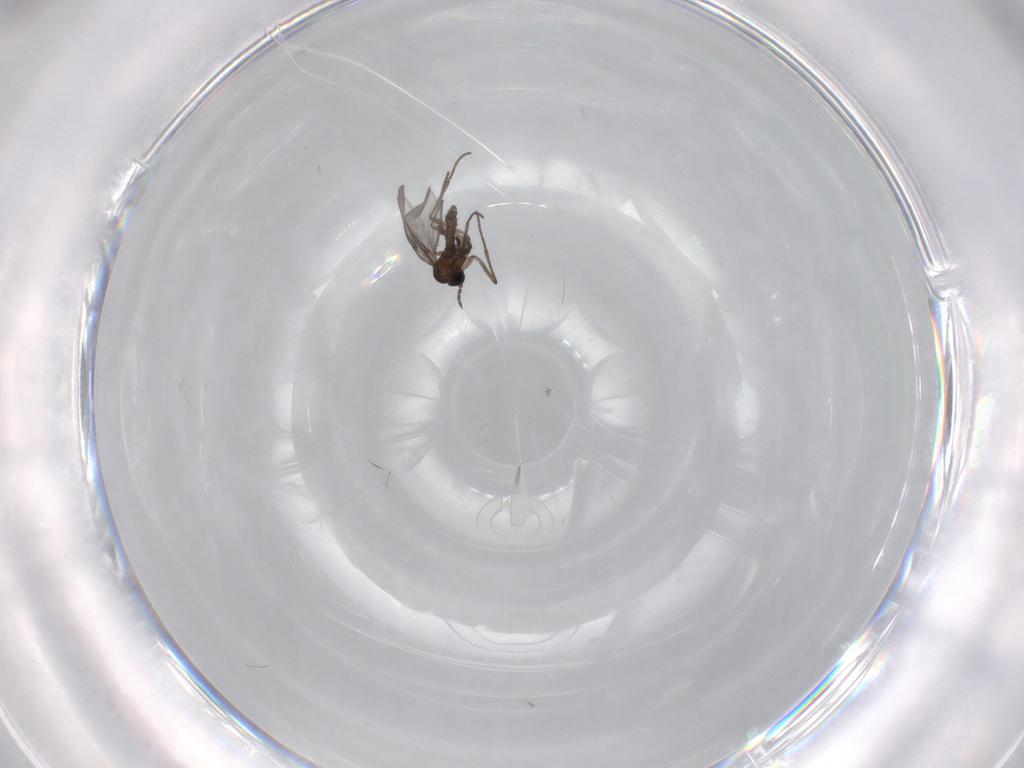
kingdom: Animalia
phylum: Arthropoda
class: Insecta
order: Diptera
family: Sciaridae
